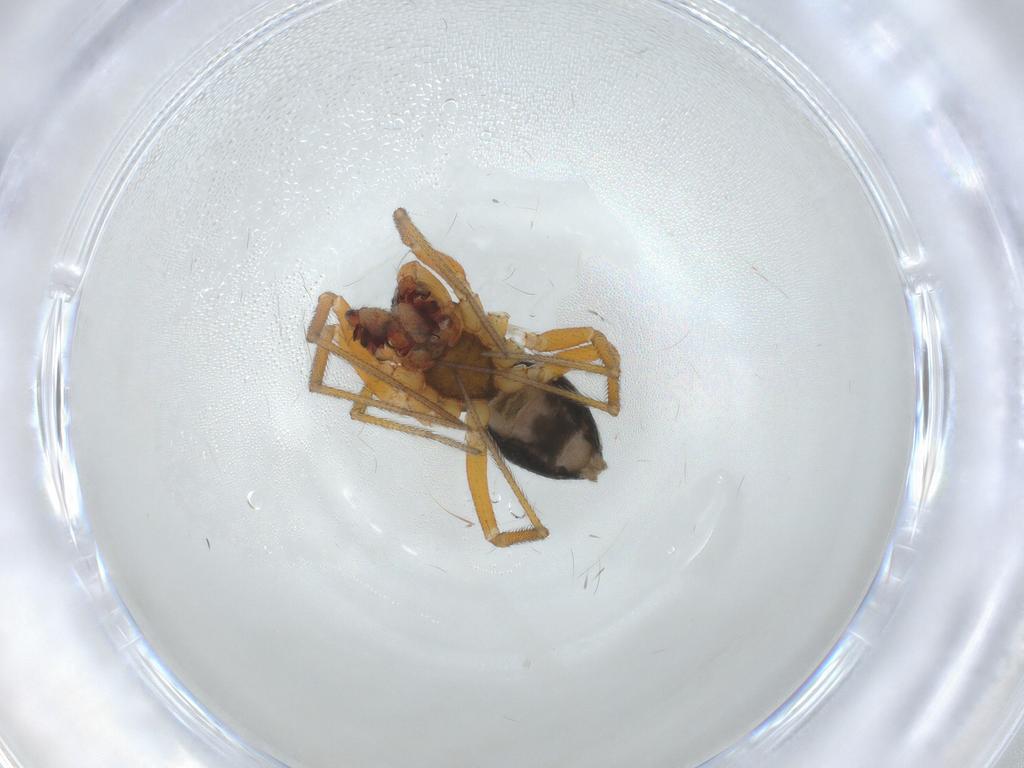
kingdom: Animalia
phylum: Arthropoda
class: Arachnida
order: Araneae
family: Linyphiidae
